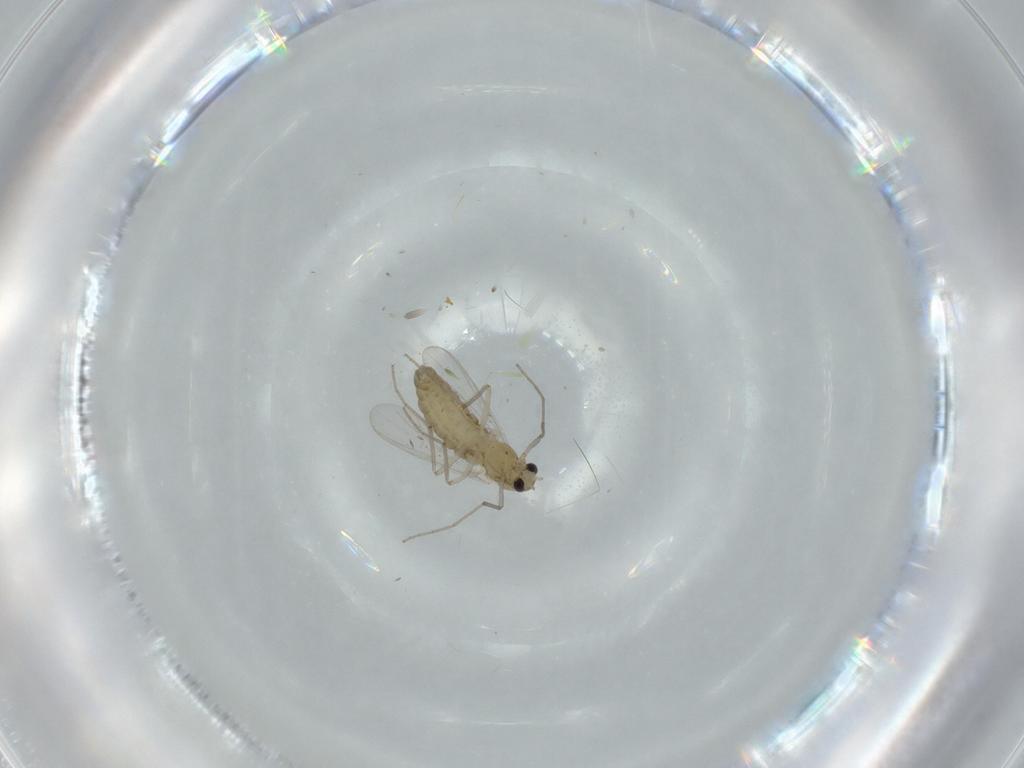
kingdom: Animalia
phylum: Arthropoda
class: Insecta
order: Diptera
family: Chironomidae
